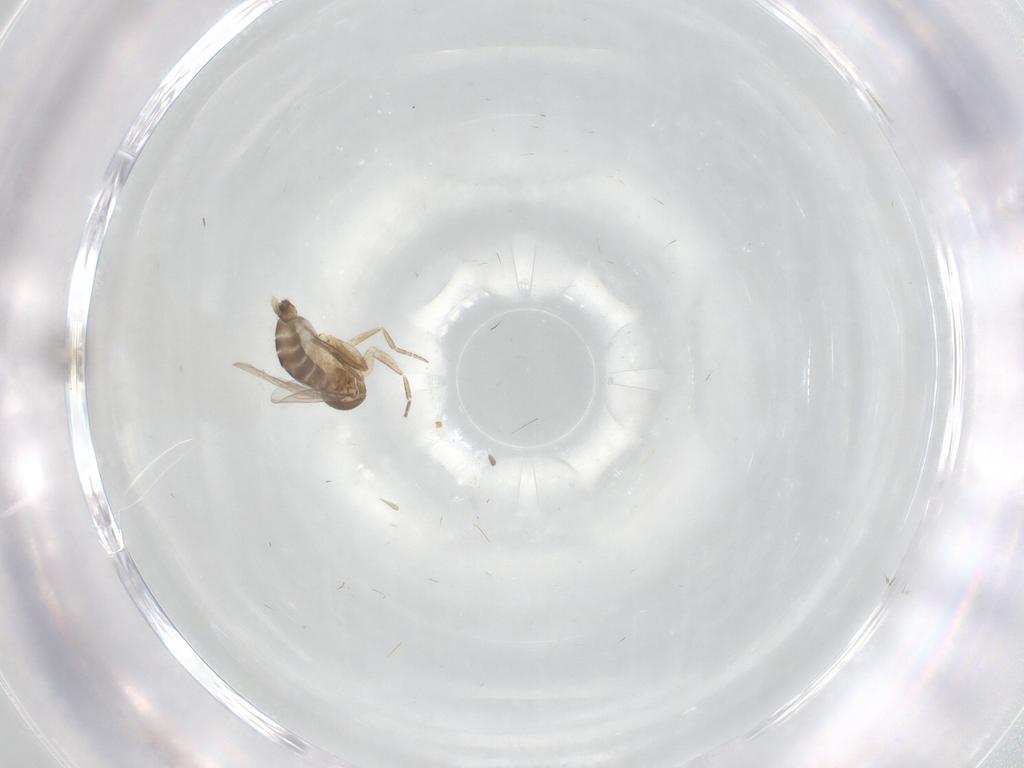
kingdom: Animalia
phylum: Arthropoda
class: Insecta
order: Diptera
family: Phoridae
